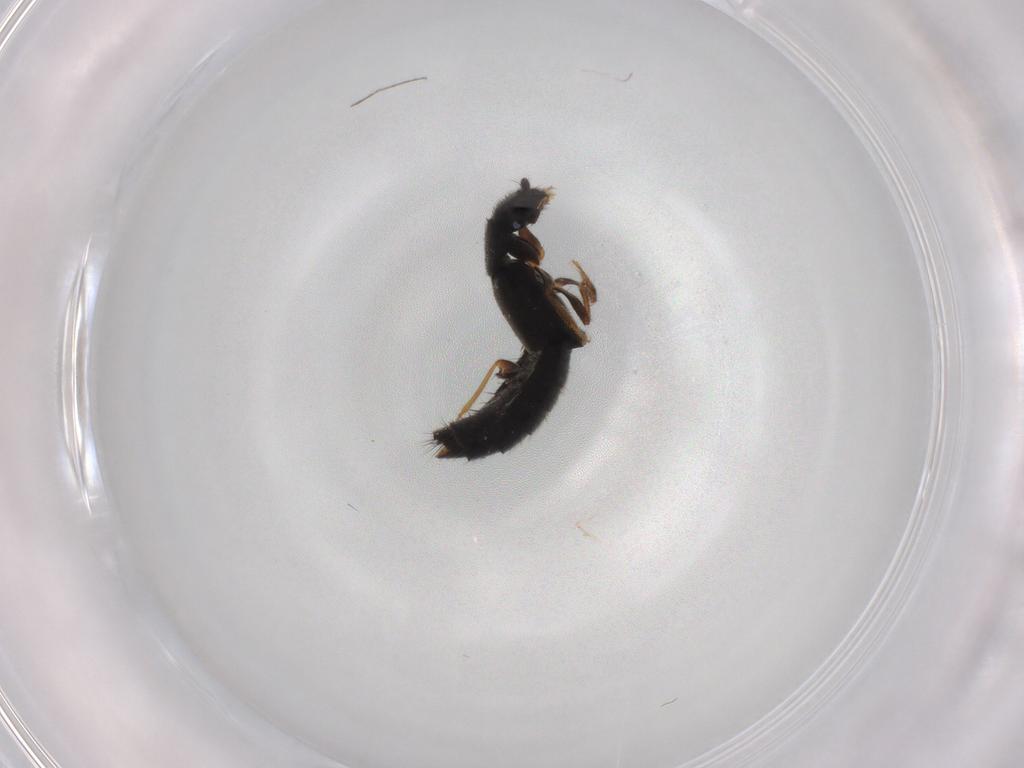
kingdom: Animalia
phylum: Arthropoda
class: Insecta
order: Coleoptera
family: Staphylinidae
